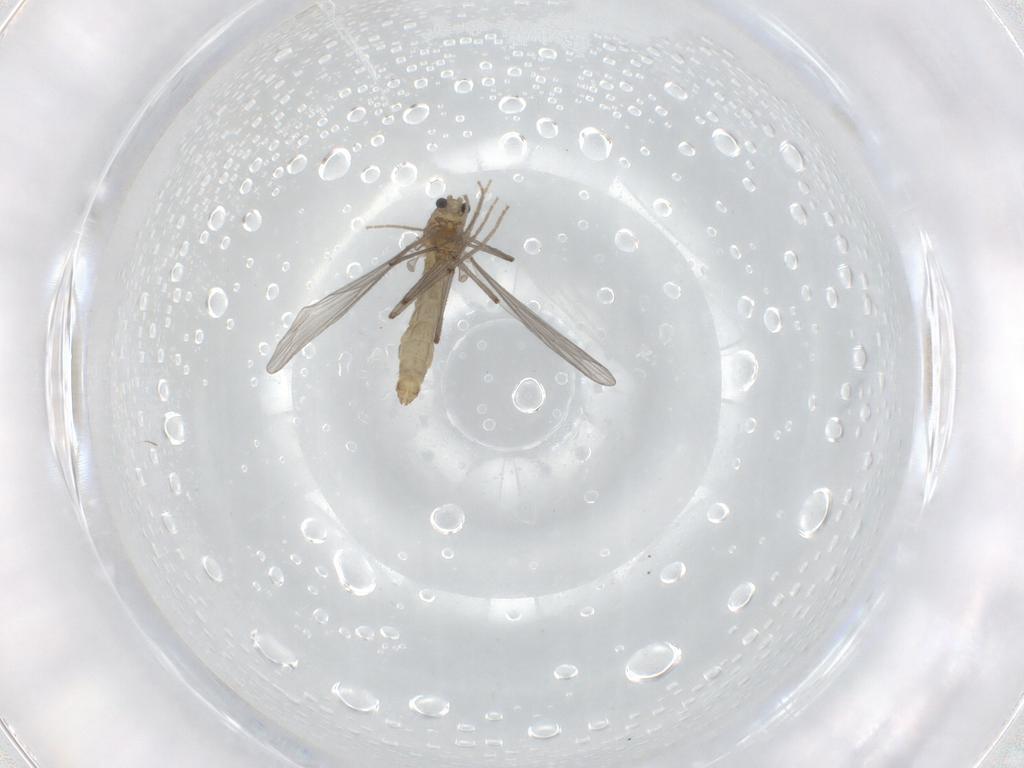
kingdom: Animalia
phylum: Arthropoda
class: Insecta
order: Diptera
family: Chironomidae
